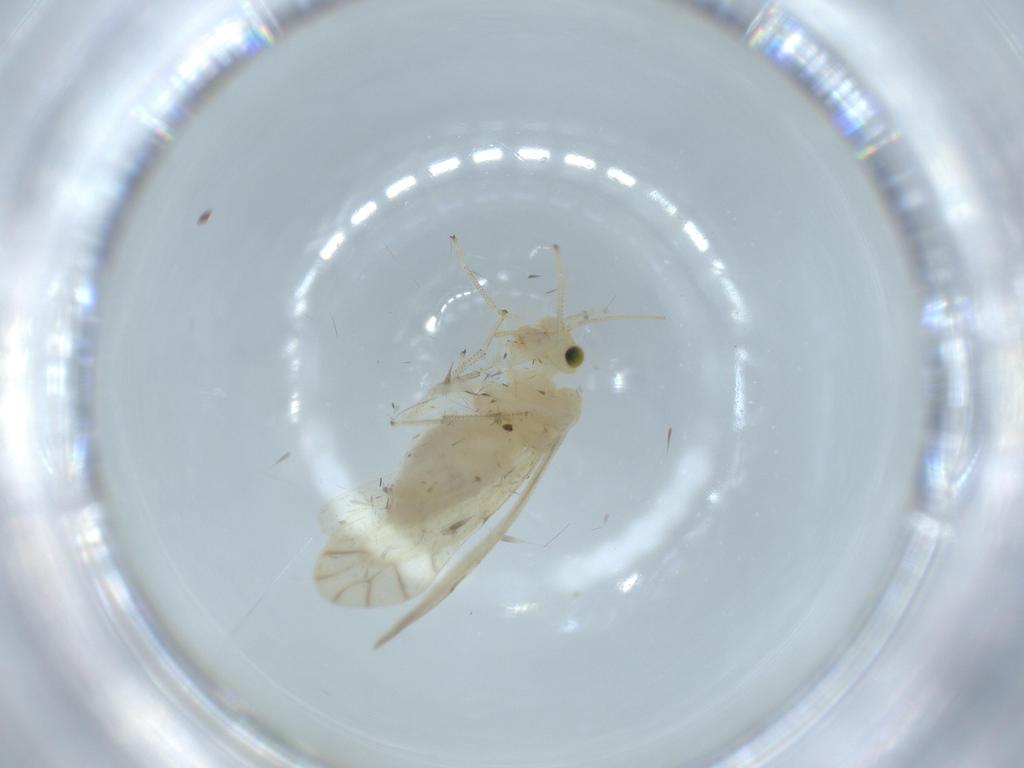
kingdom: Animalia
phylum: Arthropoda
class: Insecta
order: Psocodea
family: Caeciliusidae
